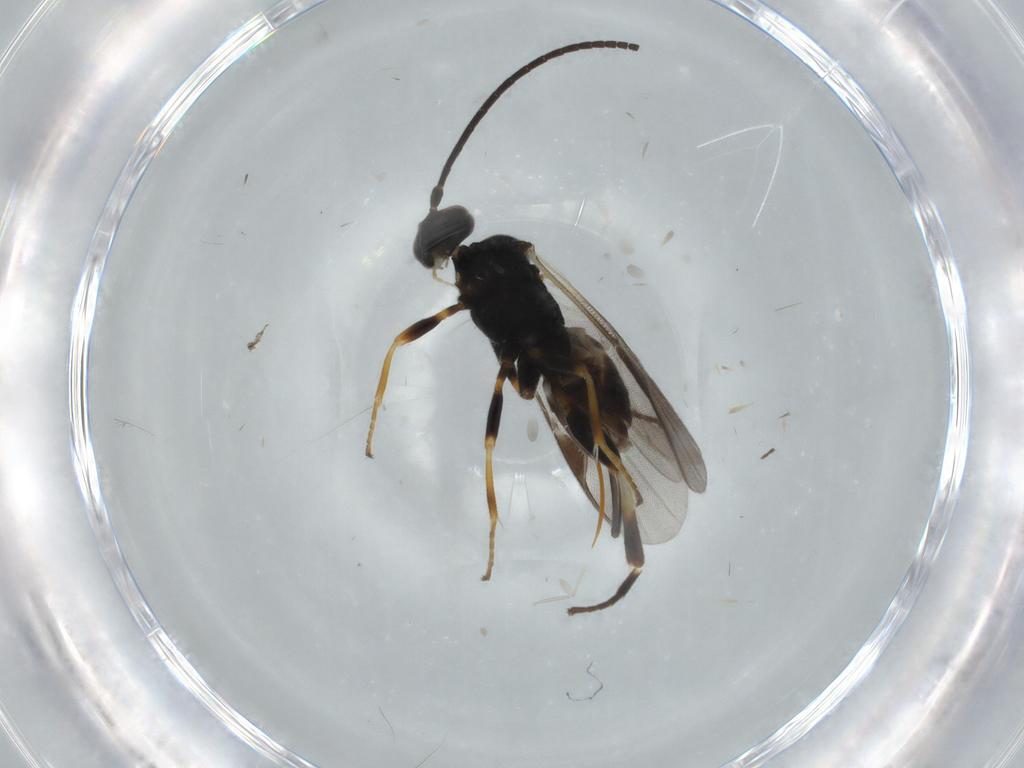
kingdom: Animalia
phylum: Arthropoda
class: Insecta
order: Hymenoptera
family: Braconidae
